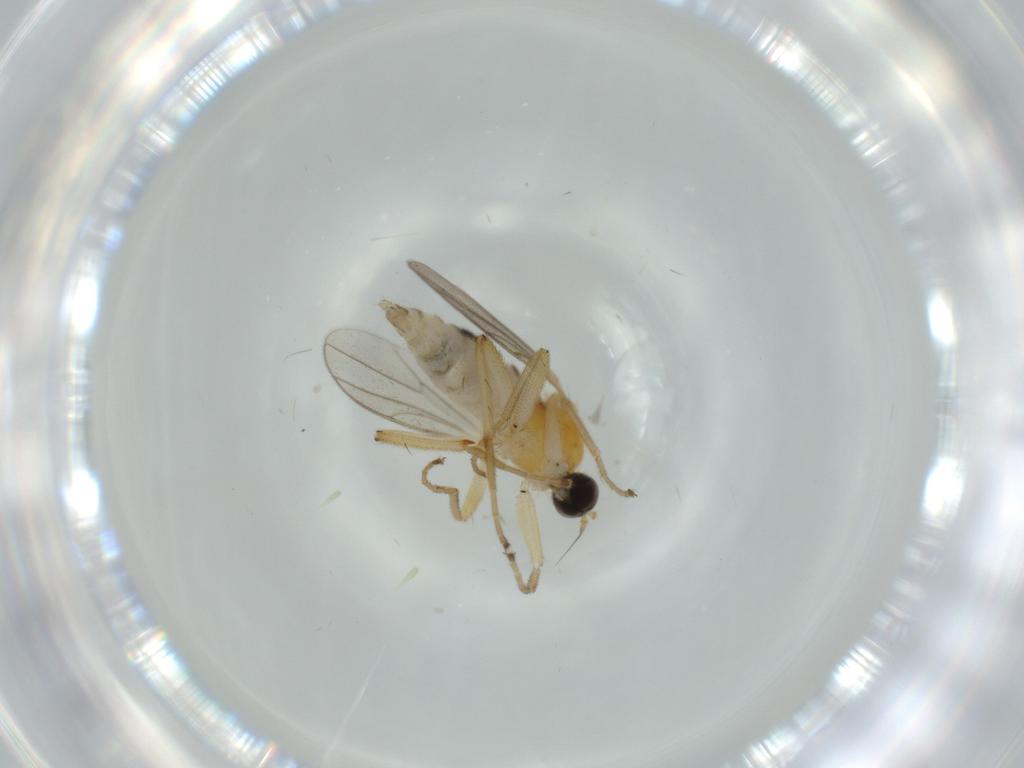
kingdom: Animalia
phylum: Arthropoda
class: Insecta
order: Diptera
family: Hybotidae
